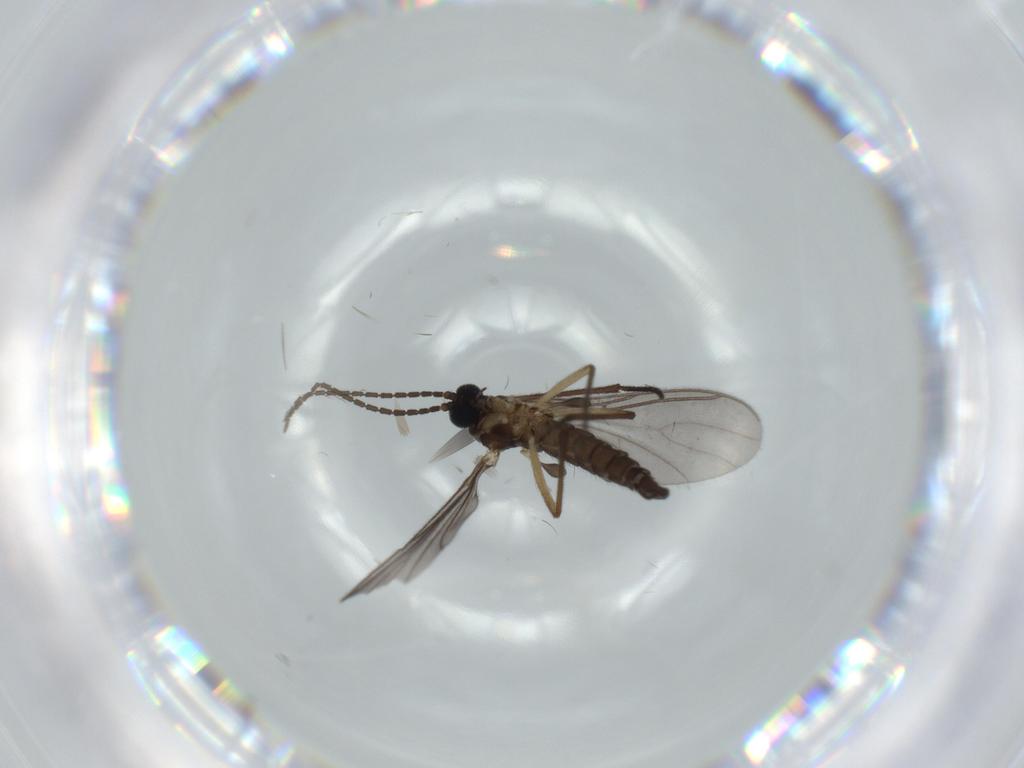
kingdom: Animalia
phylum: Arthropoda
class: Insecta
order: Diptera
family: Sciaridae
